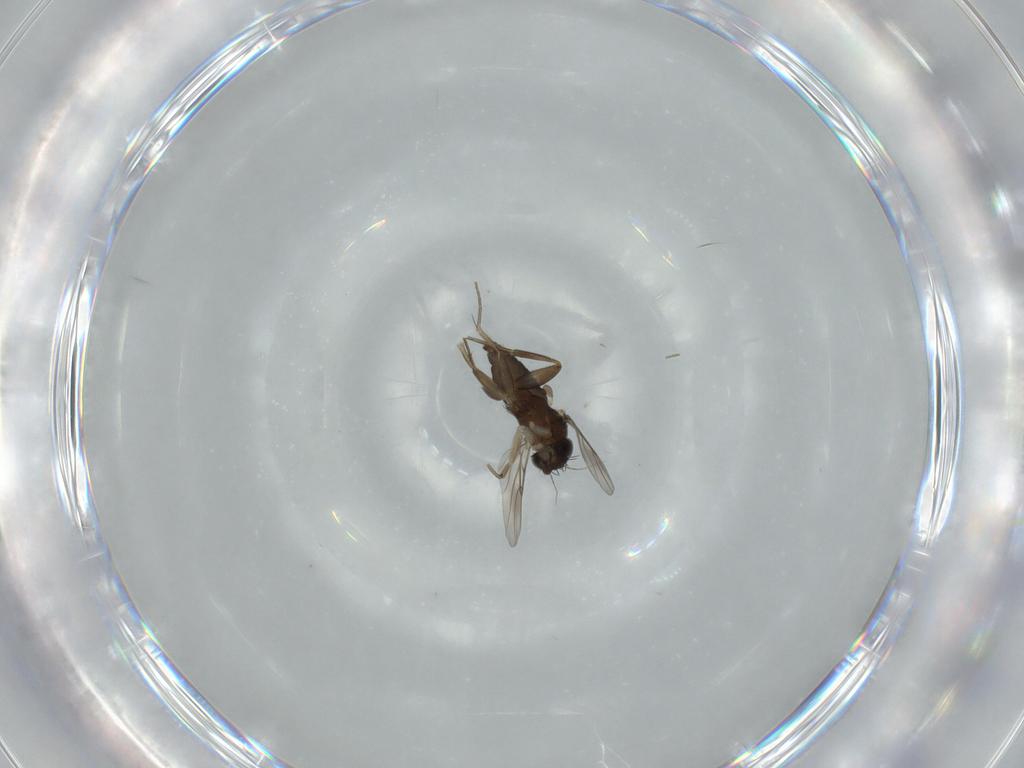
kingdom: Animalia
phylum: Arthropoda
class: Insecta
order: Diptera
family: Phoridae
